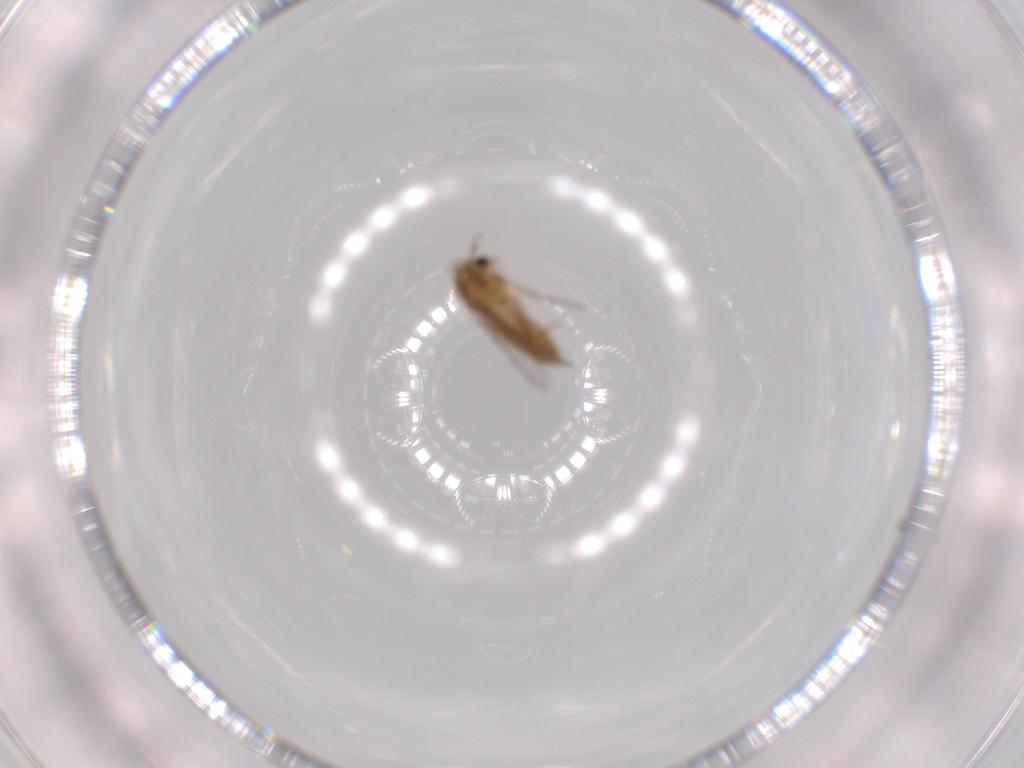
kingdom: Animalia
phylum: Arthropoda
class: Insecta
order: Diptera
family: Chironomidae
